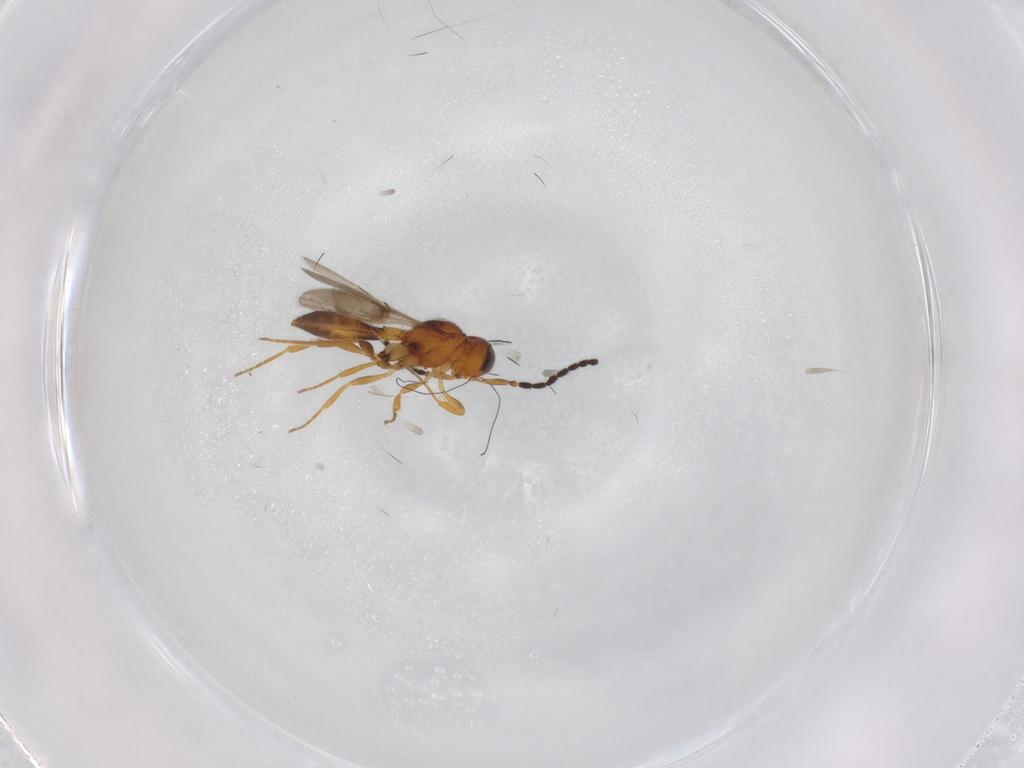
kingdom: Animalia
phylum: Arthropoda
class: Insecta
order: Hymenoptera
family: Scelionidae
